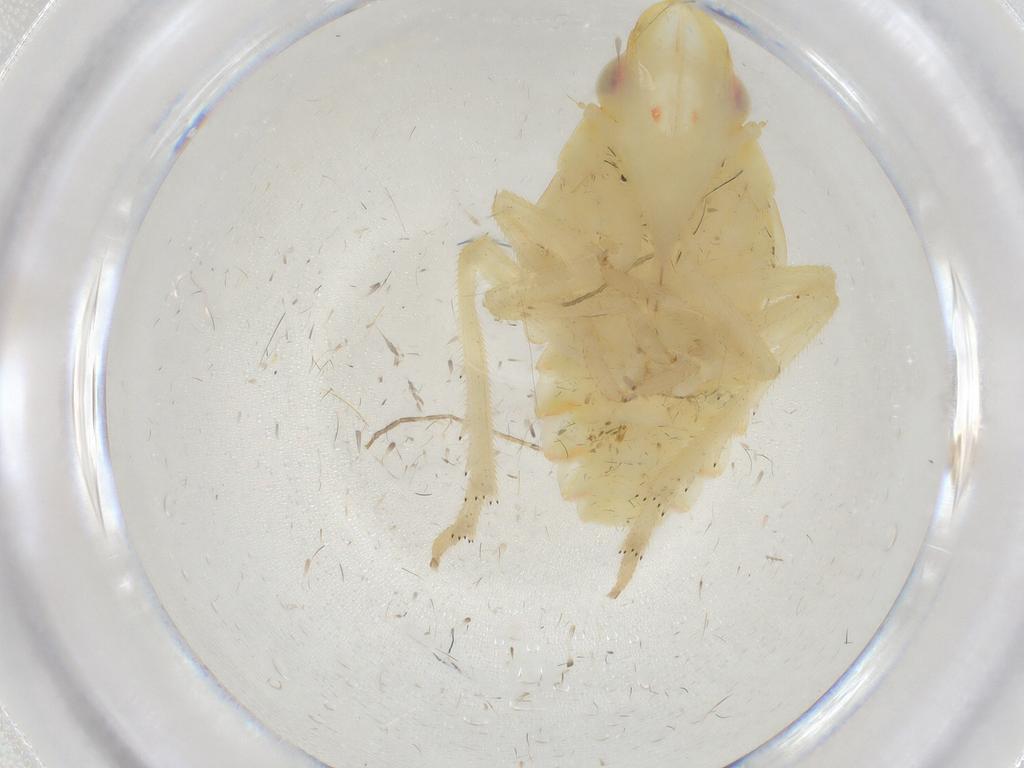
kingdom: Animalia
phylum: Arthropoda
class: Insecta
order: Hemiptera
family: Tropiduchidae
